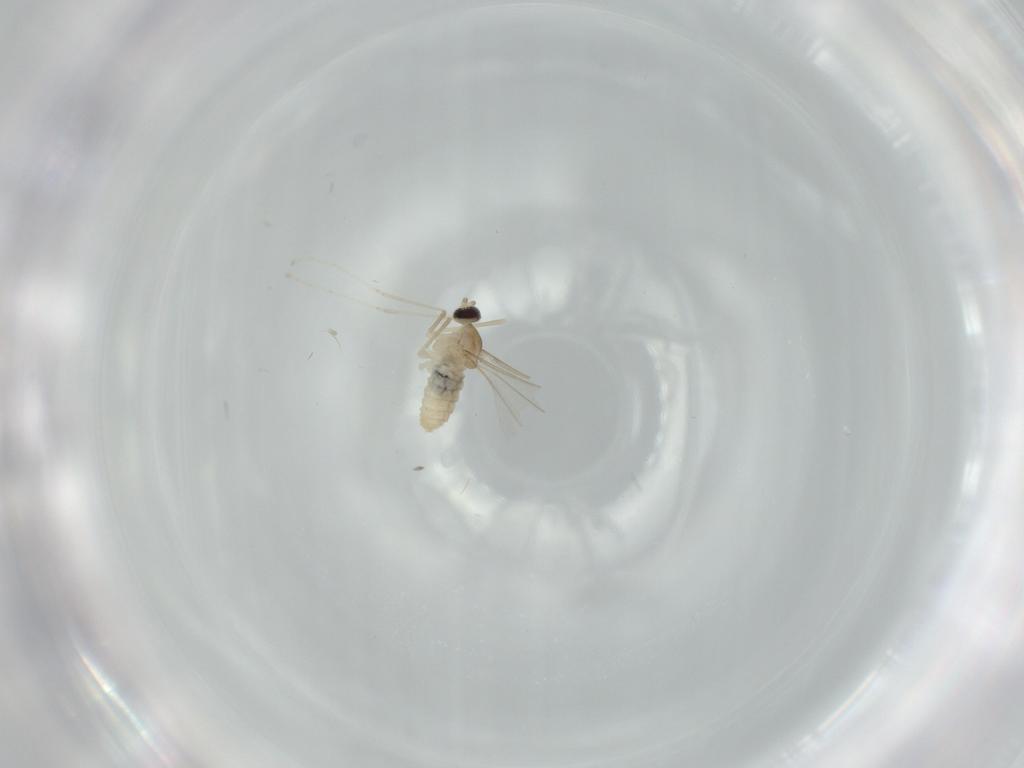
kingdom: Animalia
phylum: Arthropoda
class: Insecta
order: Diptera
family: Cecidomyiidae
